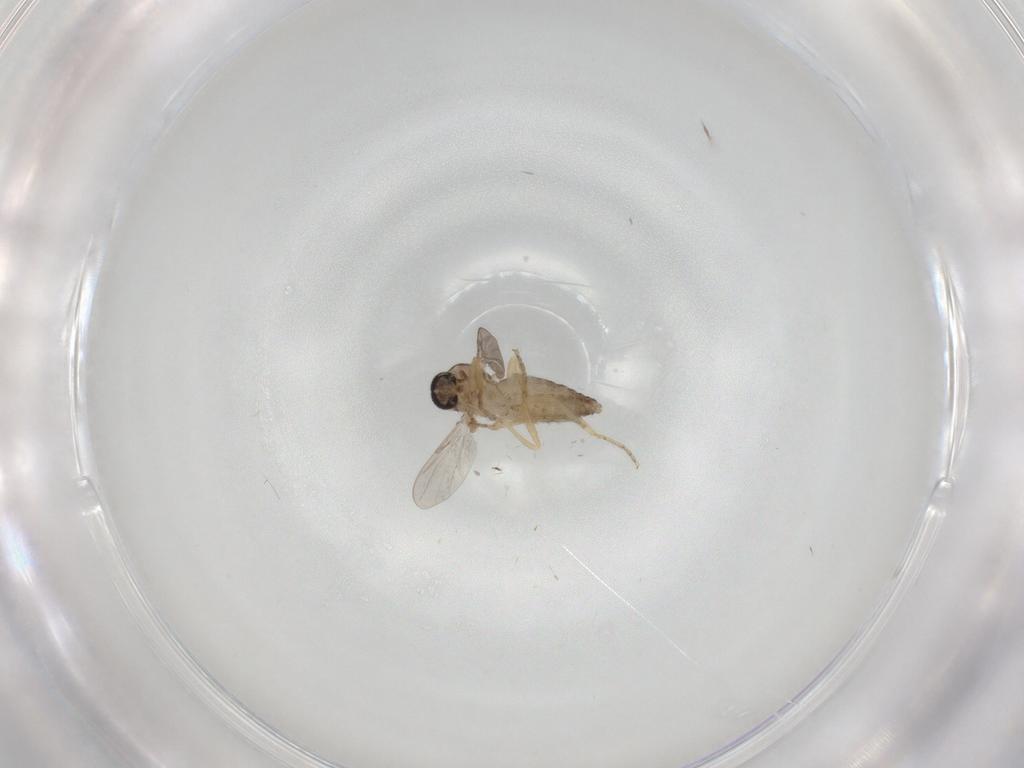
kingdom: Animalia
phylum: Arthropoda
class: Insecta
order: Diptera
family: Ceratopogonidae
